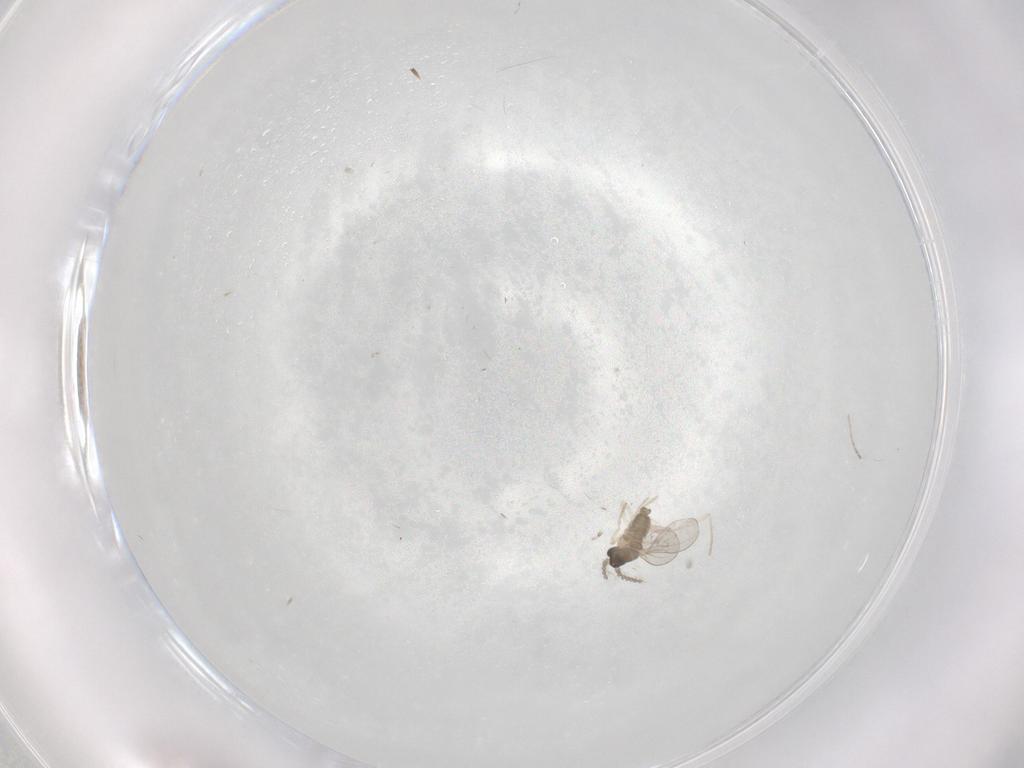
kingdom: Animalia
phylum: Arthropoda
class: Insecta
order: Diptera
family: Cecidomyiidae
